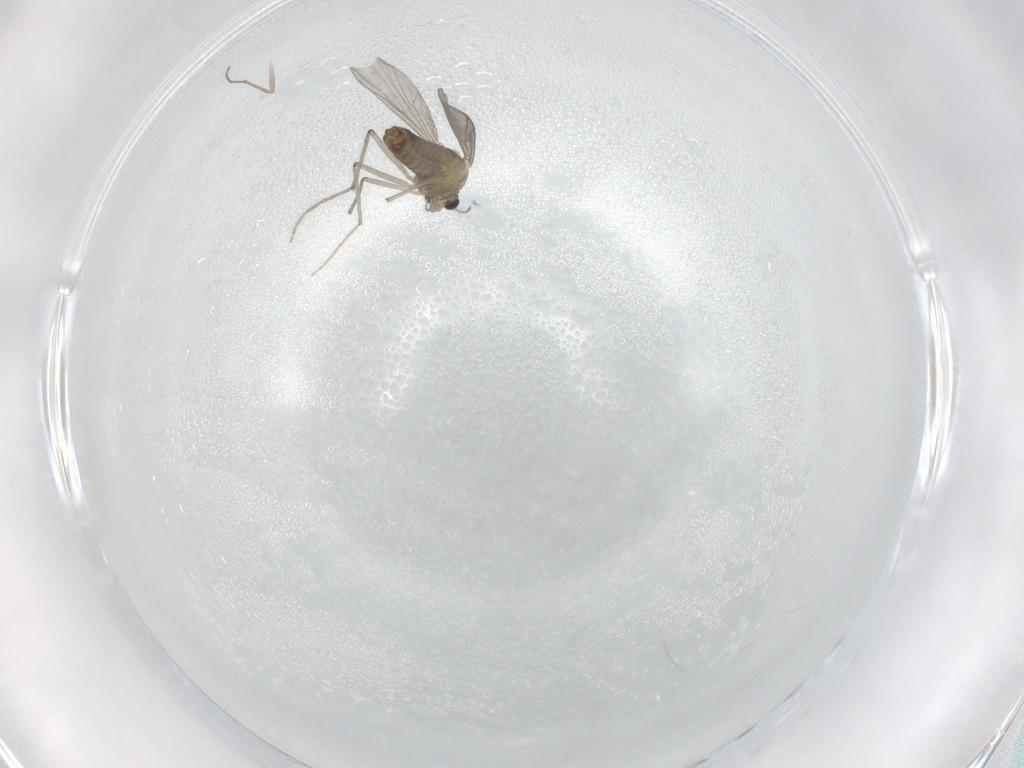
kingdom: Animalia
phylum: Arthropoda
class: Insecta
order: Diptera
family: Chironomidae
